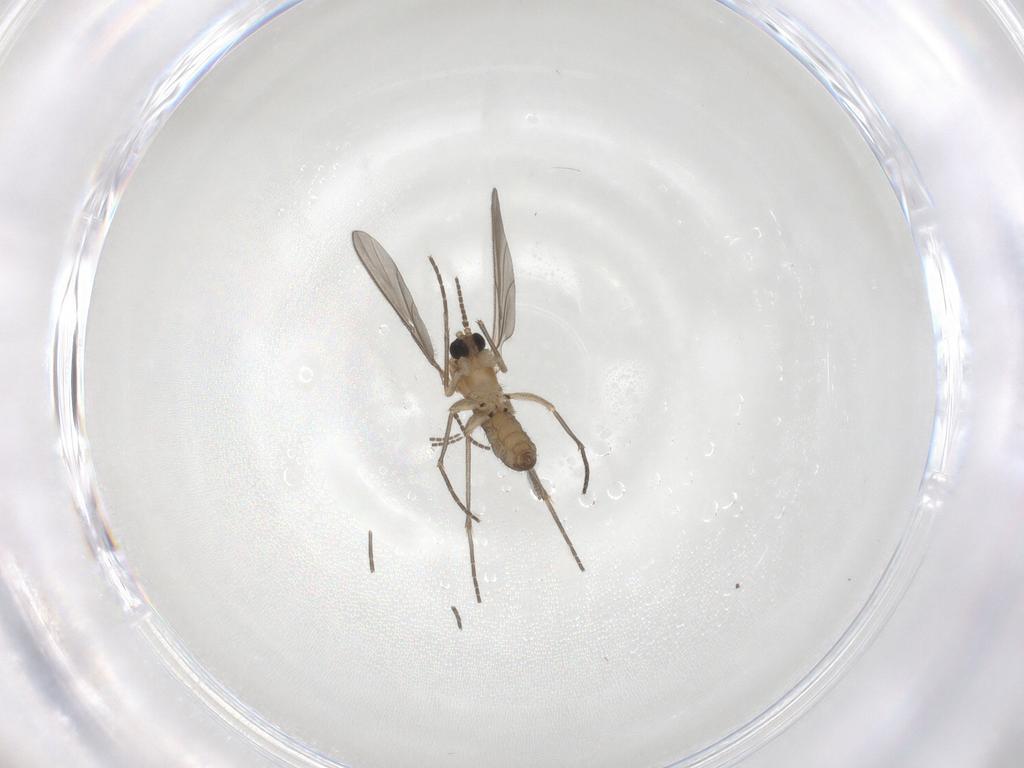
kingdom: Animalia
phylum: Arthropoda
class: Insecta
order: Diptera
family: Sciaridae
